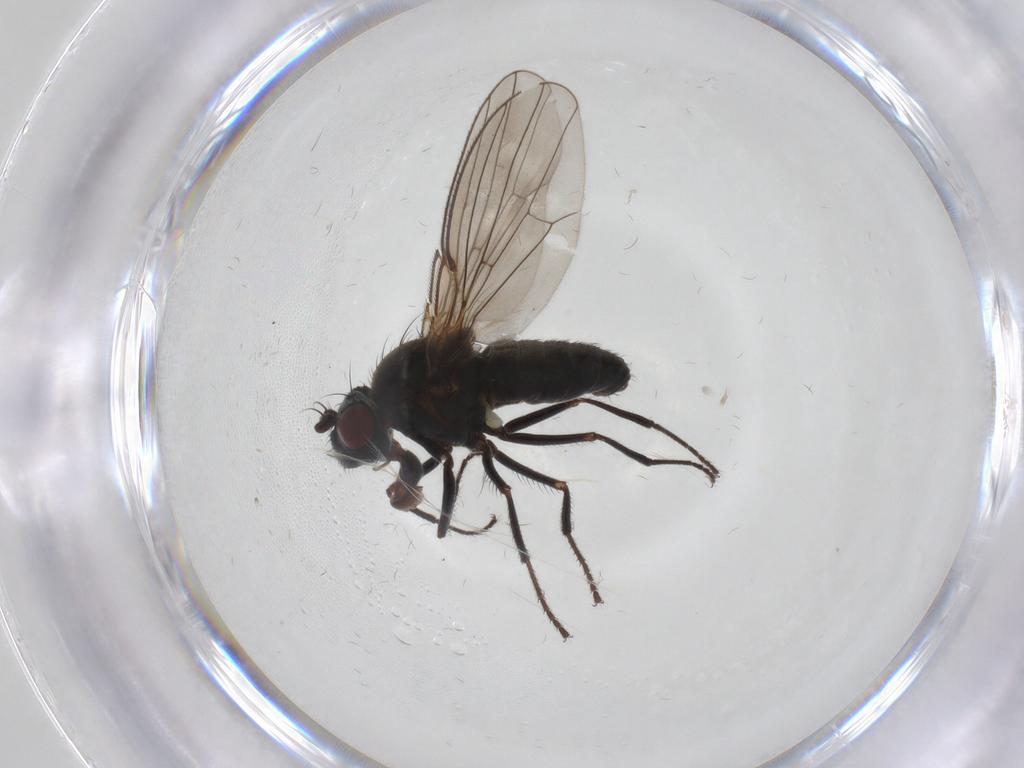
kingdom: Animalia
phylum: Arthropoda
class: Insecta
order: Diptera
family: Ephydridae
